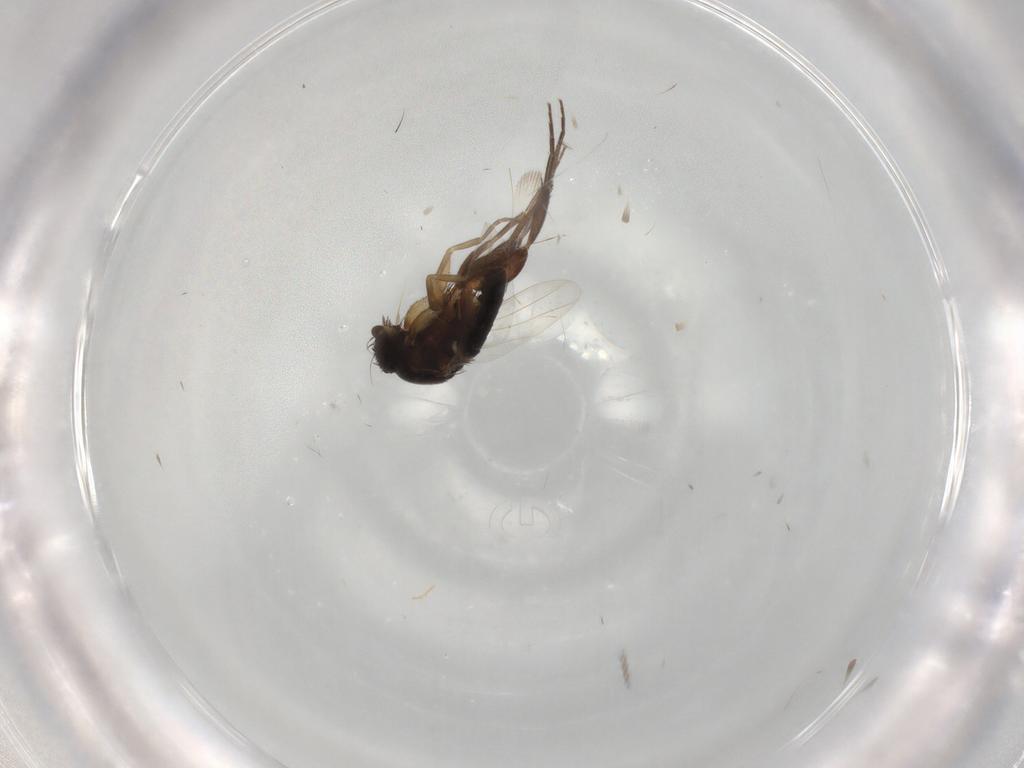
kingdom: Animalia
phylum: Arthropoda
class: Insecta
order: Diptera
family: Phoridae
